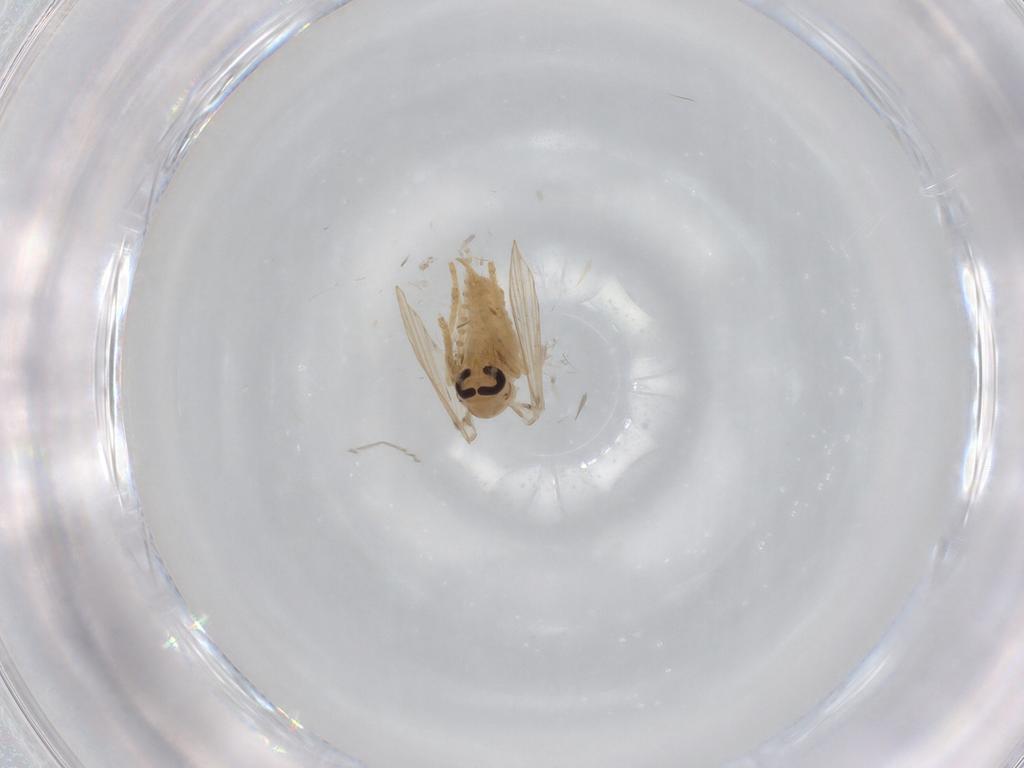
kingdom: Animalia
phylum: Arthropoda
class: Insecta
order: Diptera
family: Psychodidae
